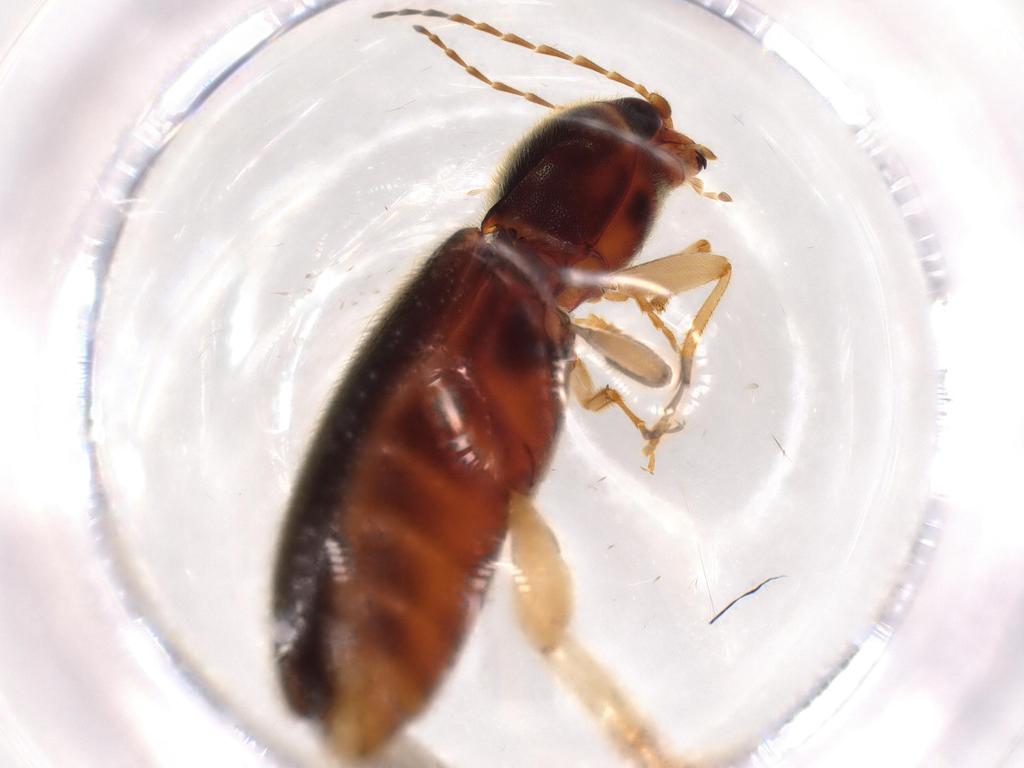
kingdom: Animalia
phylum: Arthropoda
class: Insecta
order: Coleoptera
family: Elateridae
